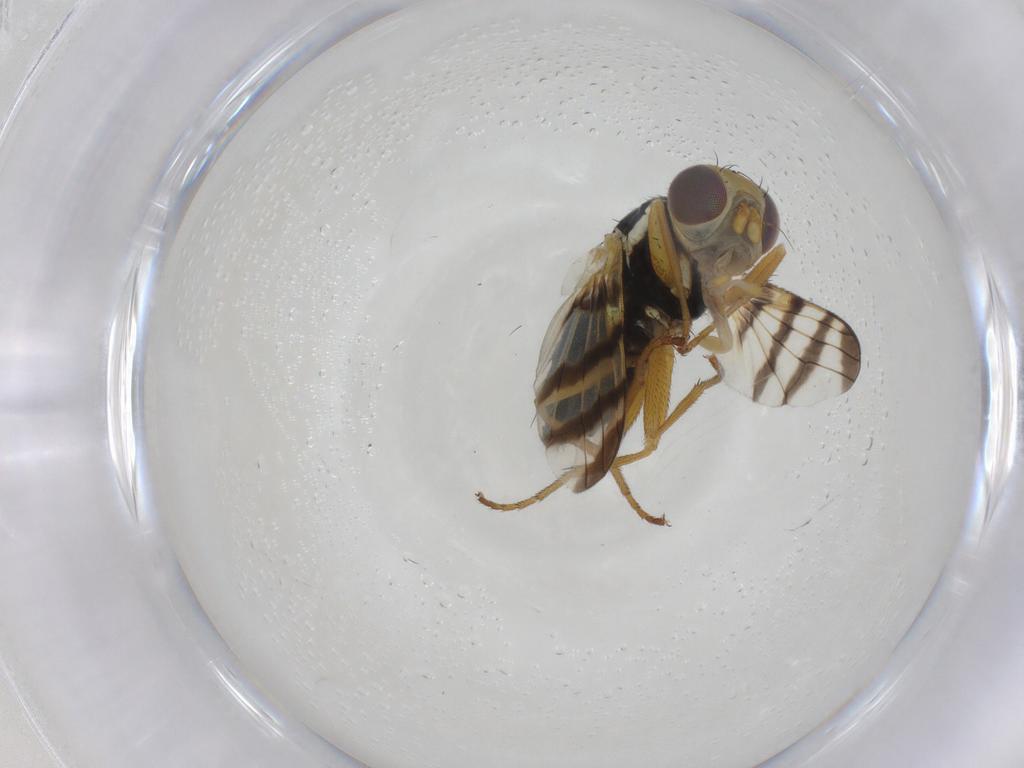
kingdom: Animalia
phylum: Arthropoda
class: Insecta
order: Diptera
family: Tephritidae
